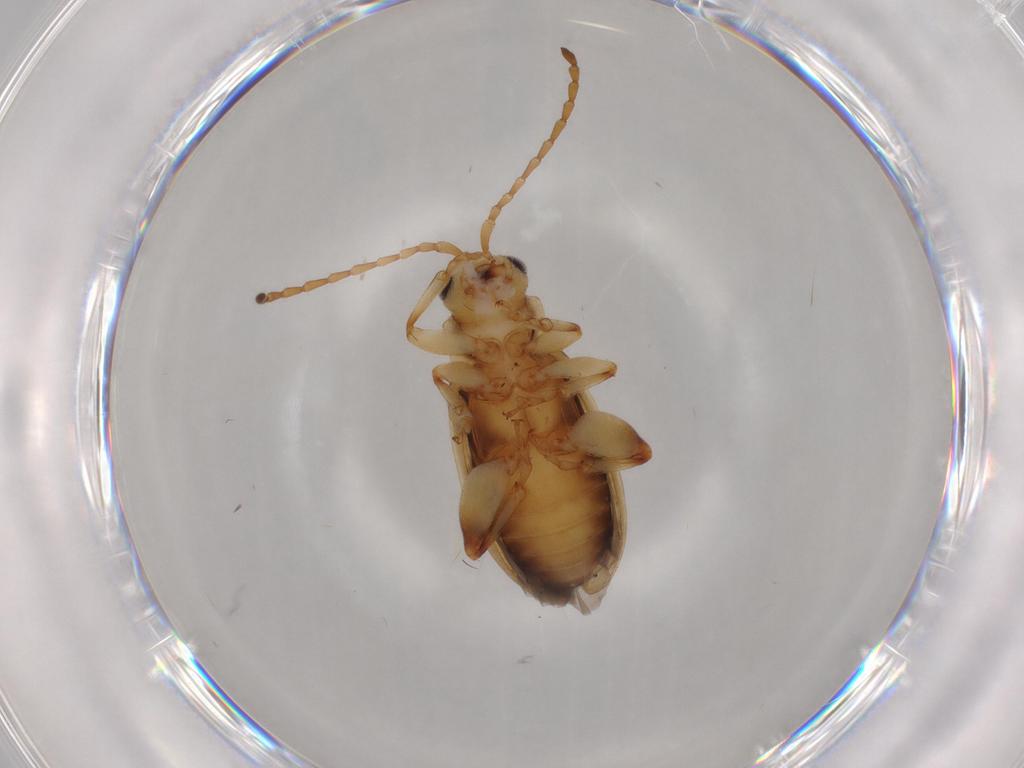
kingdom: Animalia
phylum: Arthropoda
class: Insecta
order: Coleoptera
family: Chrysomelidae
